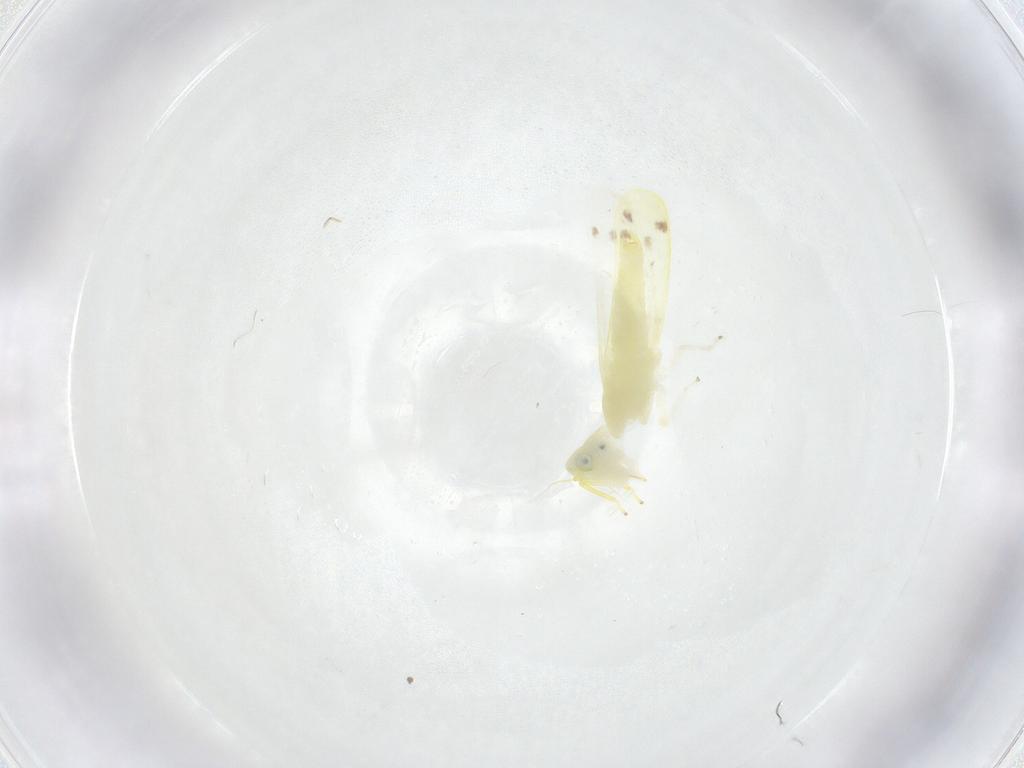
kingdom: Animalia
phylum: Arthropoda
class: Insecta
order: Hemiptera
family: Cicadellidae
